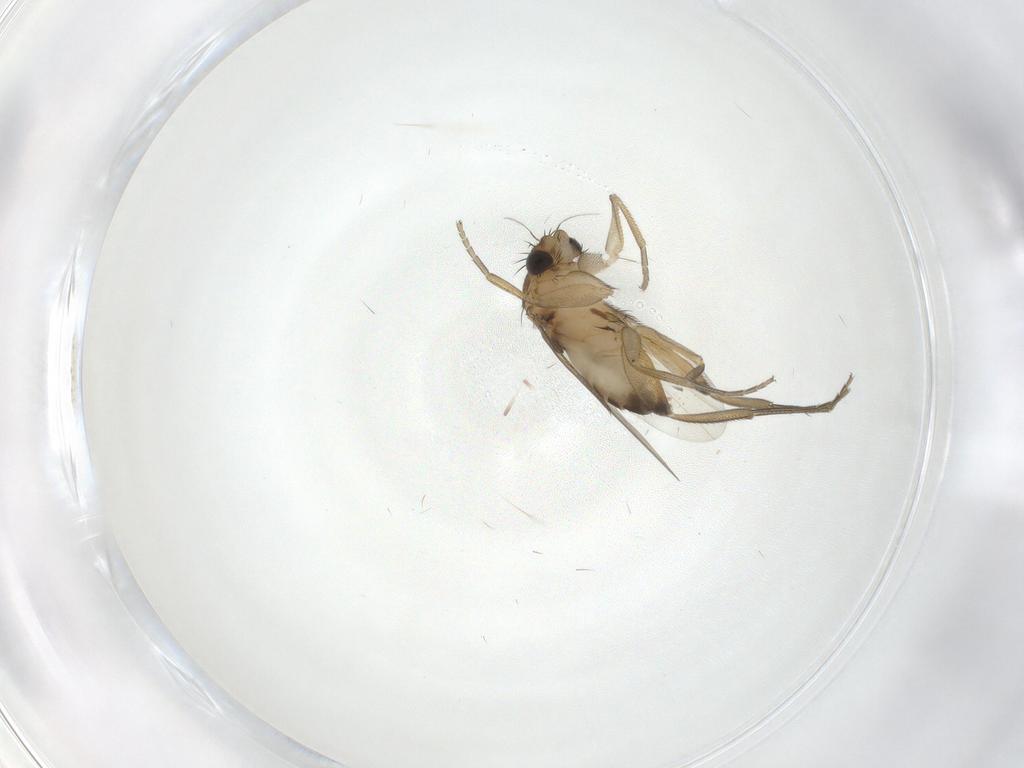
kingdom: Animalia
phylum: Arthropoda
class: Insecta
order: Diptera
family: Phoridae
